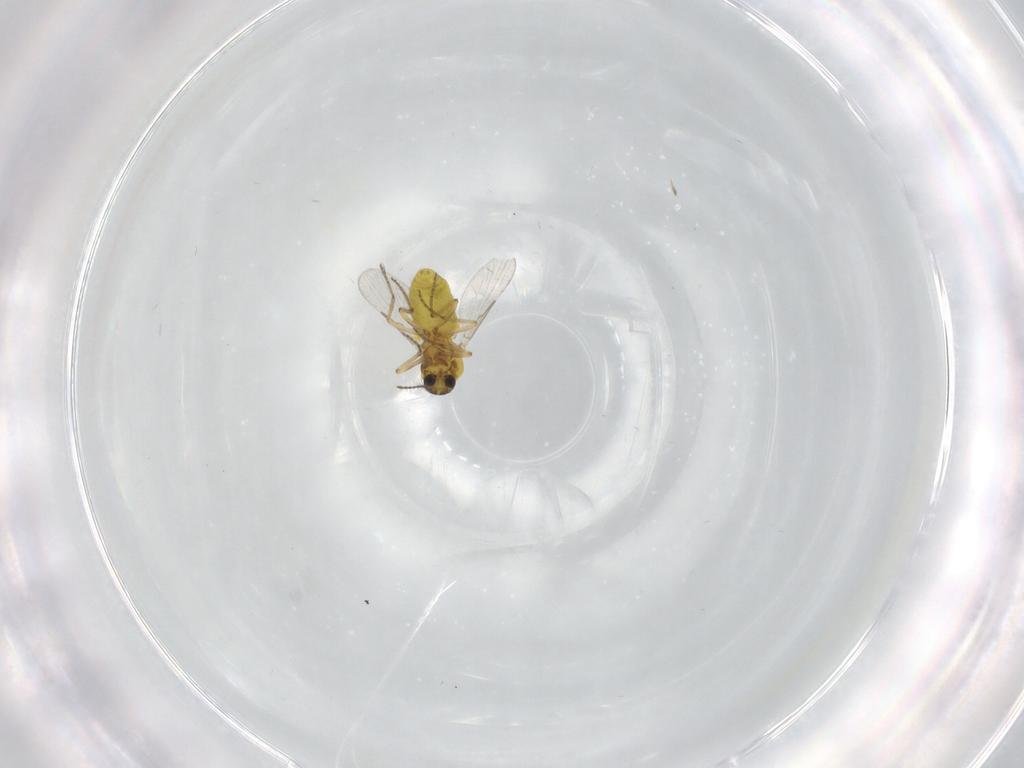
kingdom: Animalia
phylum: Arthropoda
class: Insecta
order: Diptera
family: Ceratopogonidae
